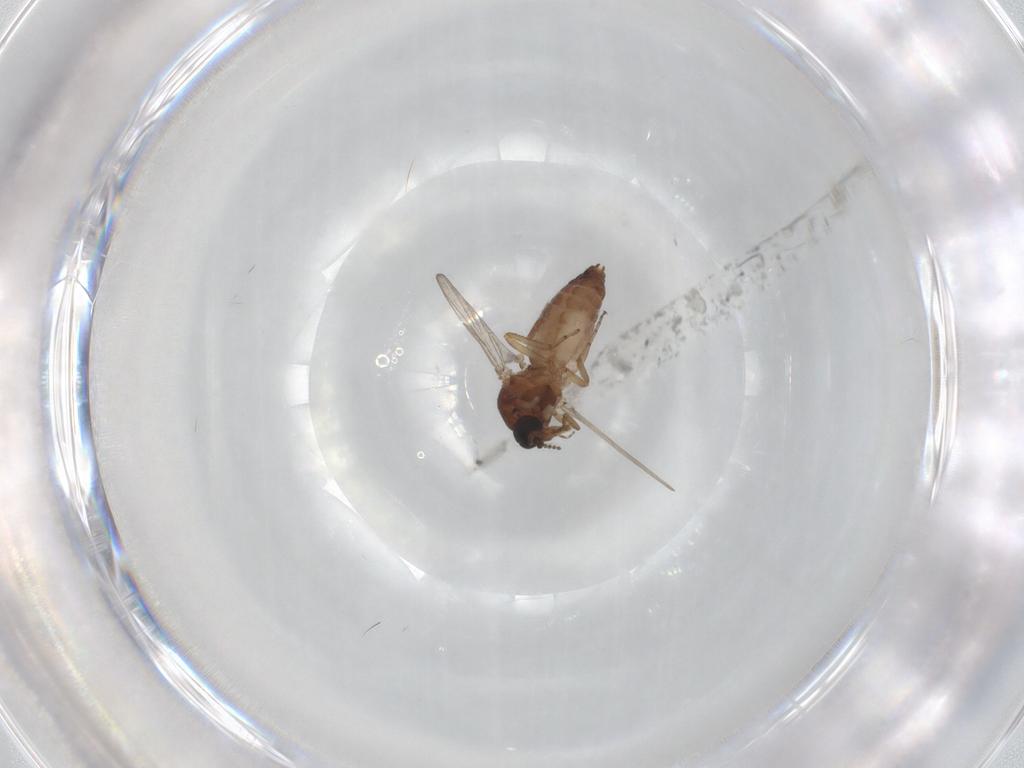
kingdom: Animalia
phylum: Arthropoda
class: Insecta
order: Diptera
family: Ceratopogonidae
